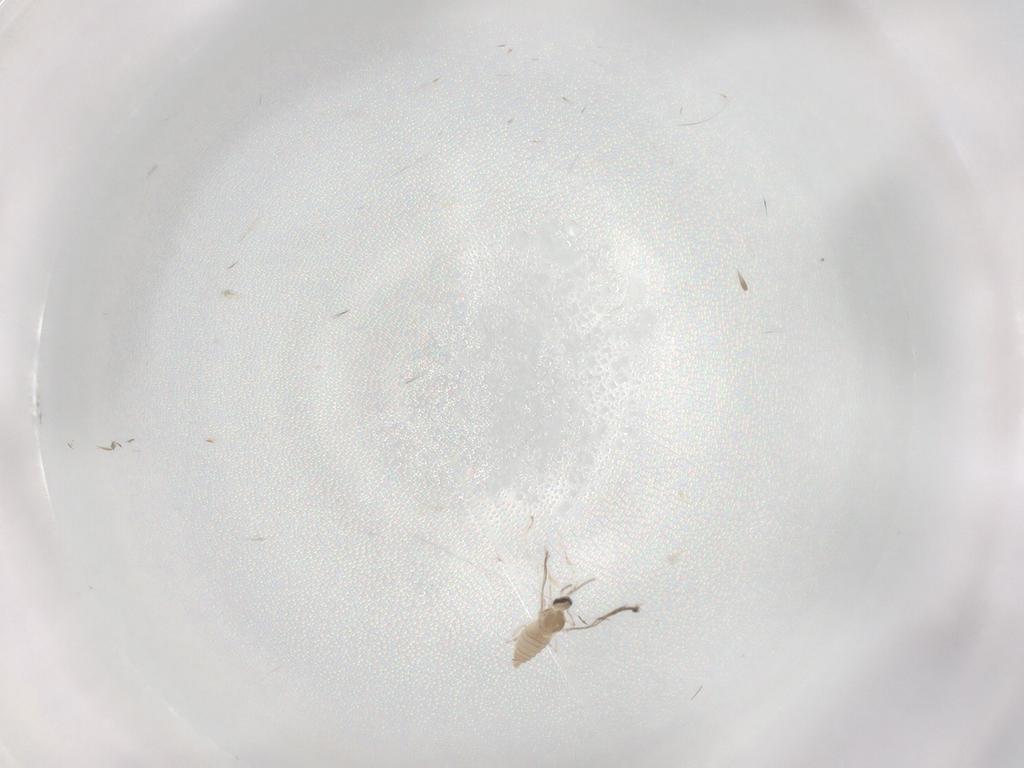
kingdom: Animalia
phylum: Arthropoda
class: Insecta
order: Diptera
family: Cecidomyiidae
